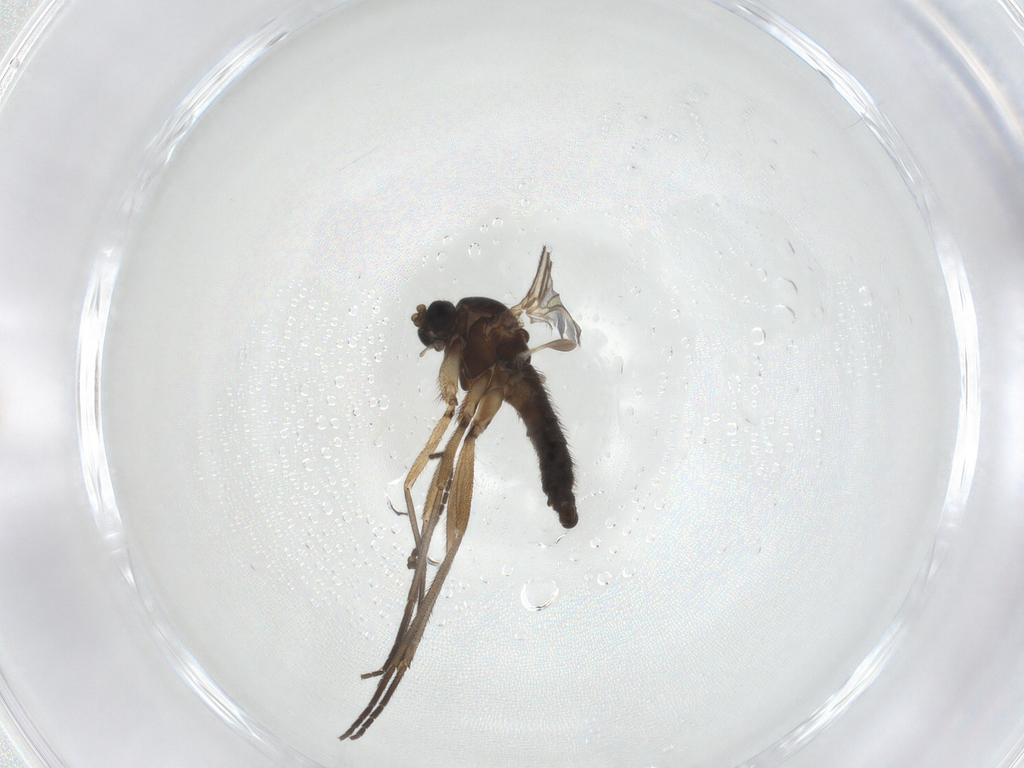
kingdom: Animalia
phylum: Arthropoda
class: Insecta
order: Diptera
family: Sciaridae
